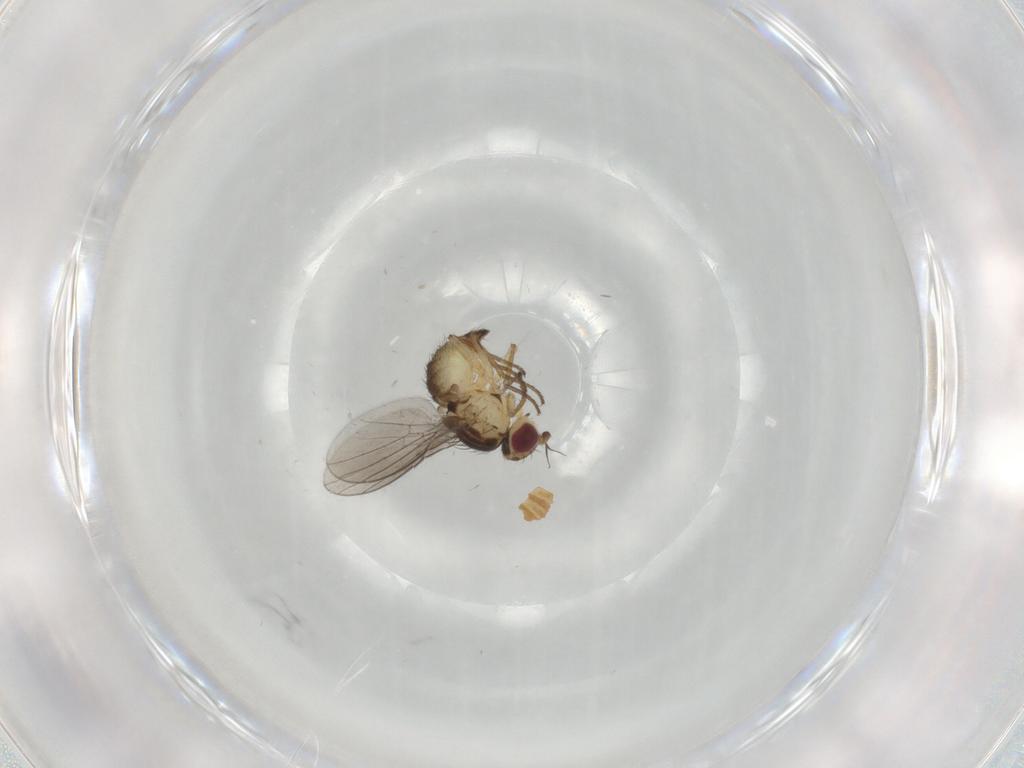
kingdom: Animalia
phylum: Arthropoda
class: Insecta
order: Diptera
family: Agromyzidae
